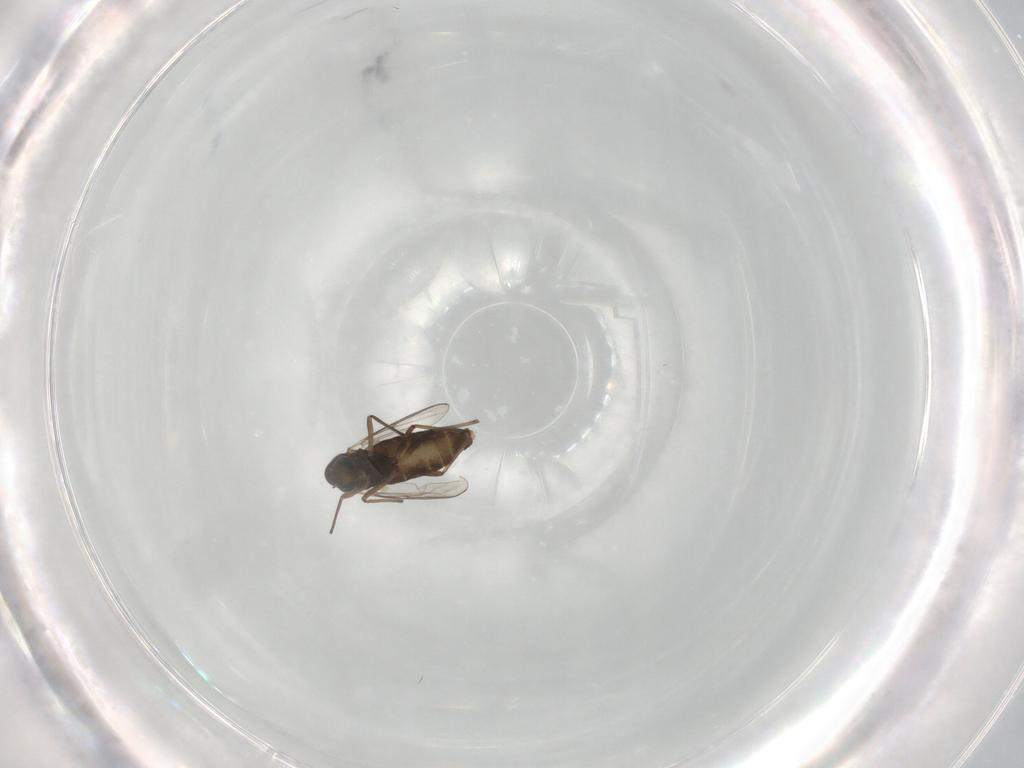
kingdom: Animalia
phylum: Arthropoda
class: Insecta
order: Diptera
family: Chironomidae
